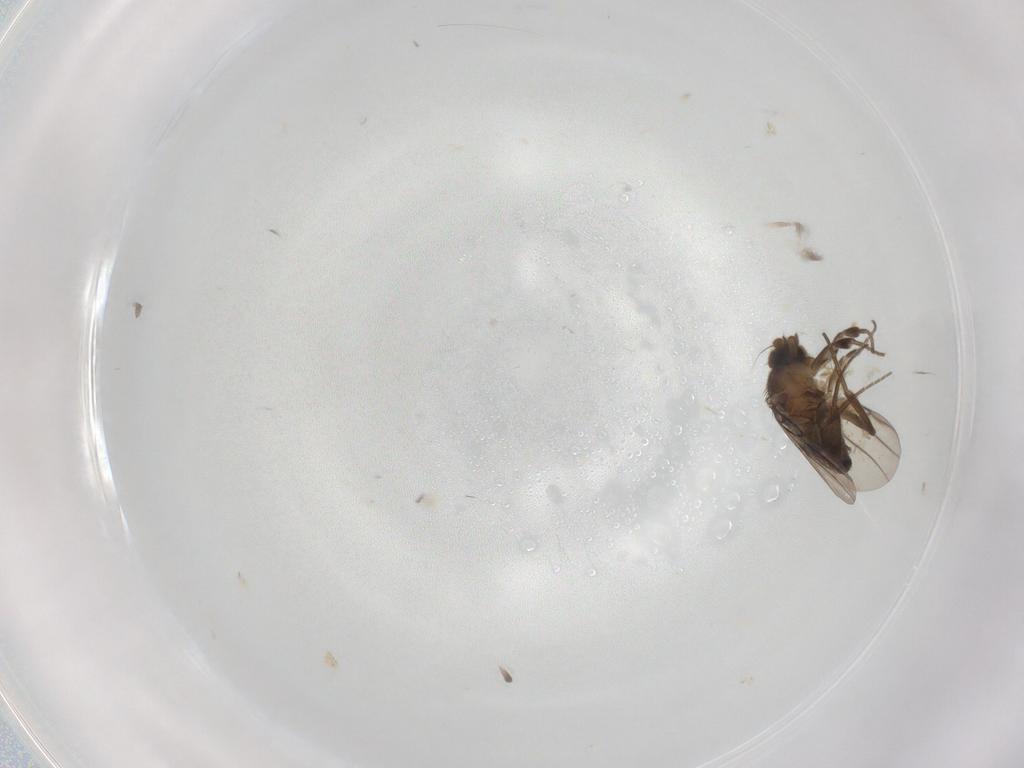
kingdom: Animalia
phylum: Arthropoda
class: Insecta
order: Diptera
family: Phoridae
